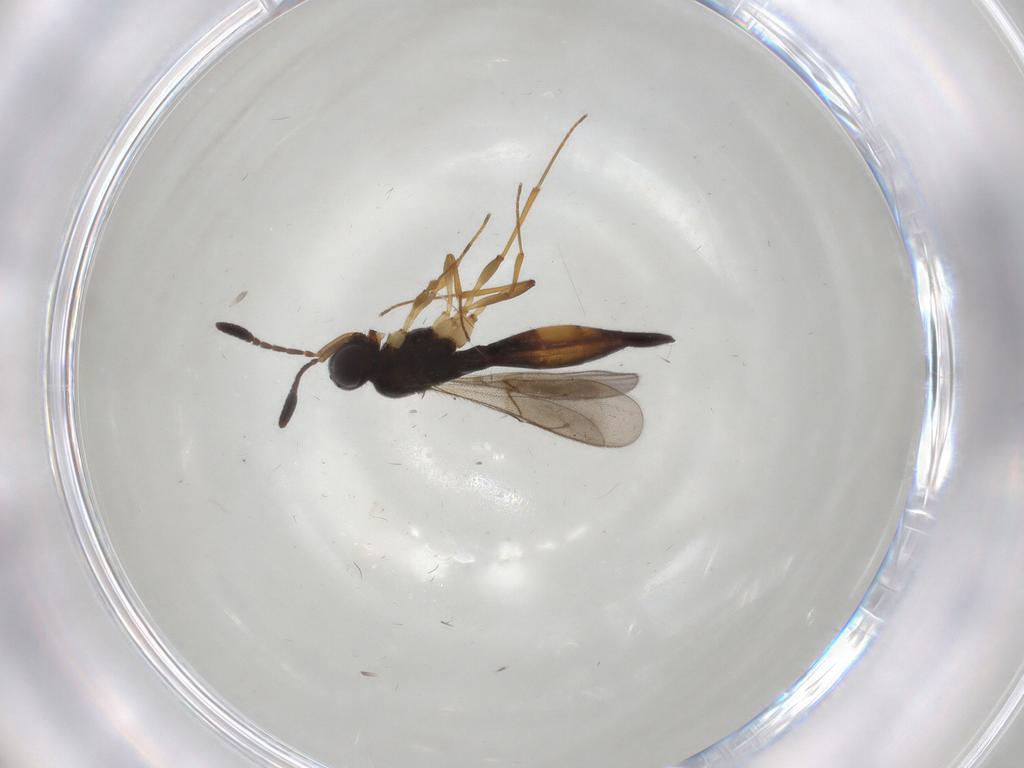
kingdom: Animalia
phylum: Arthropoda
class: Insecta
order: Hymenoptera
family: Scelionidae
